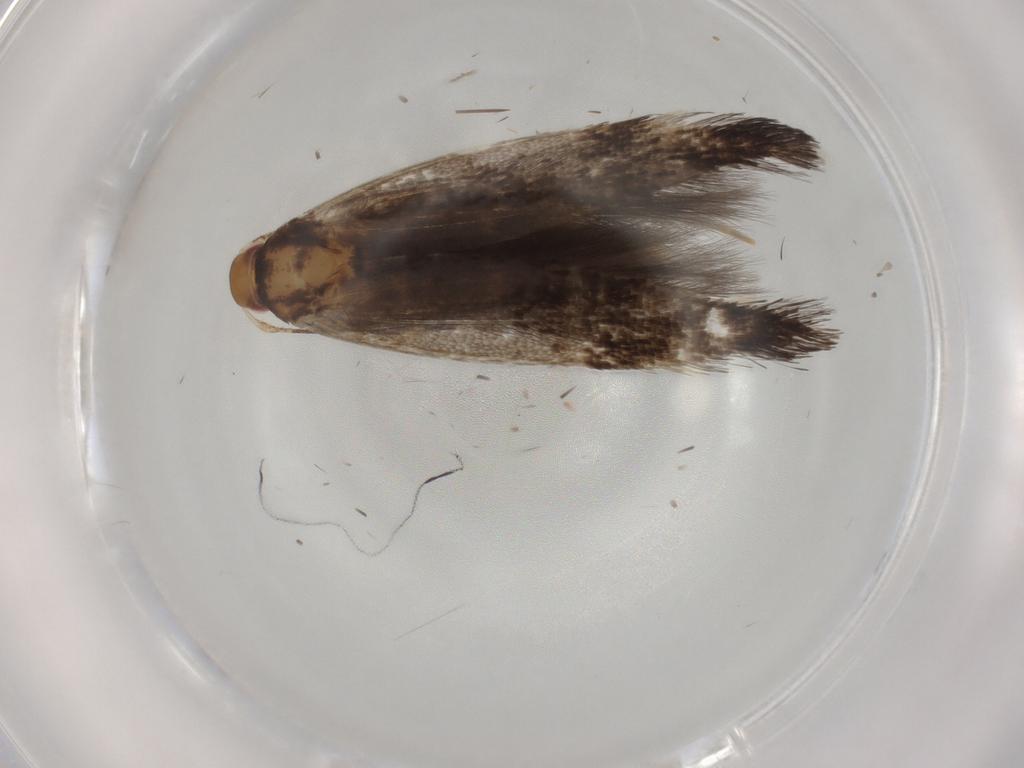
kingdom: Animalia
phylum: Arthropoda
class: Insecta
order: Lepidoptera
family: Cosmopterigidae
